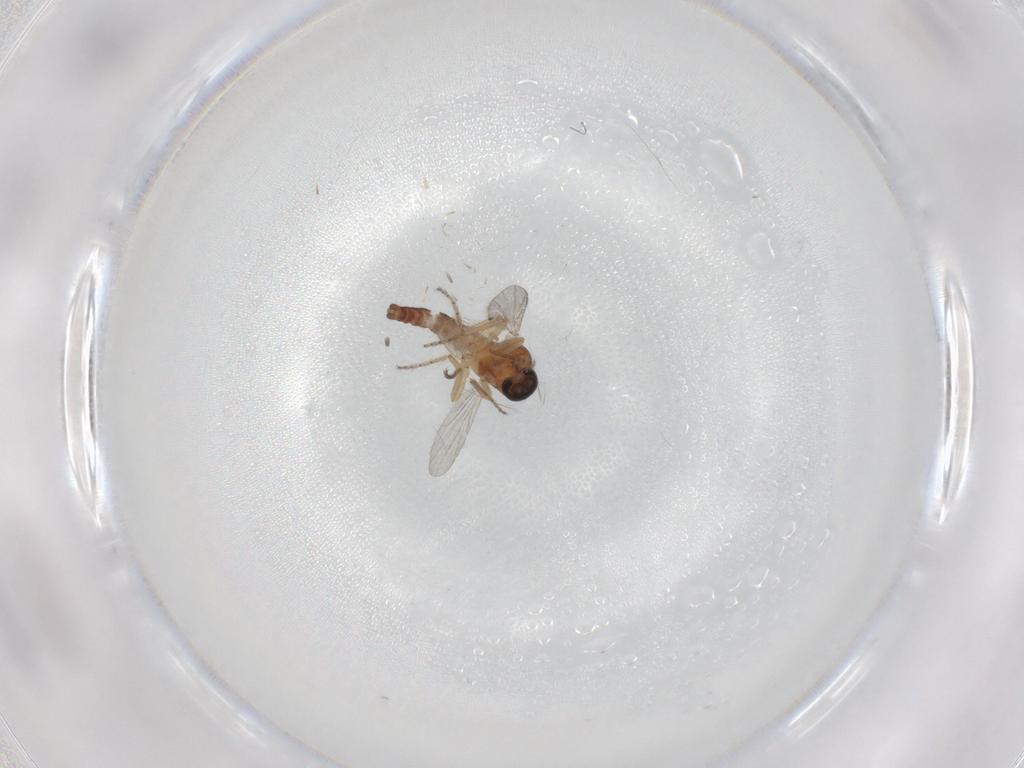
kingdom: Animalia
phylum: Arthropoda
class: Insecta
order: Diptera
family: Ceratopogonidae
